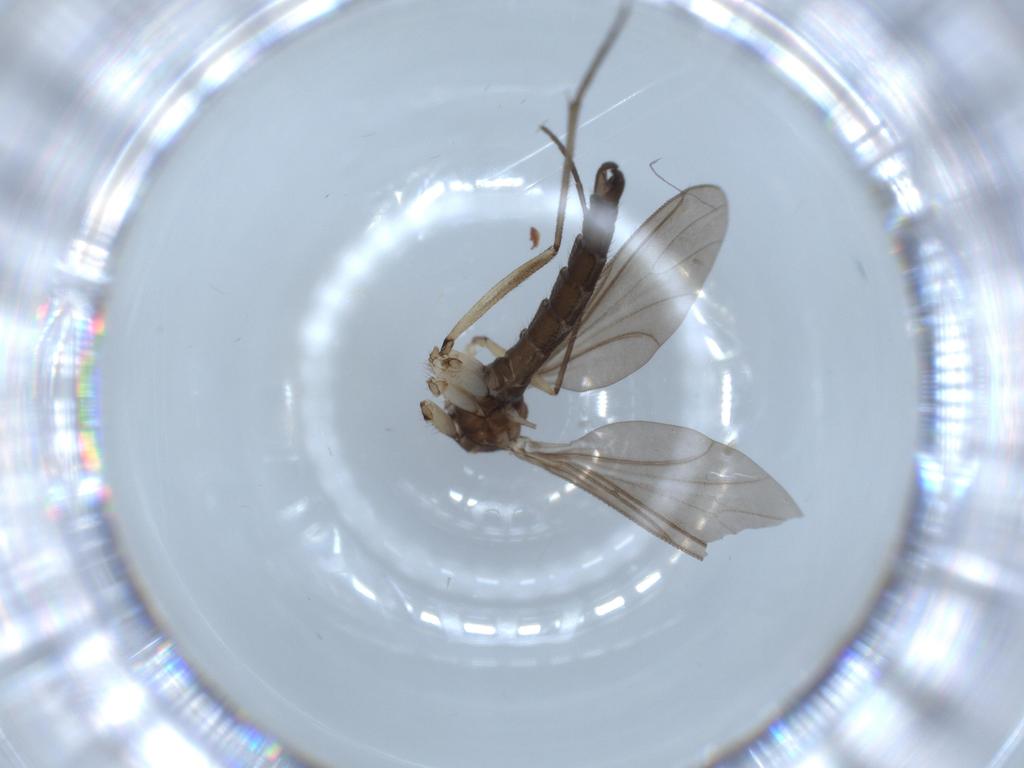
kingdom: Animalia
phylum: Arthropoda
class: Insecta
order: Diptera
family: Sciaridae
